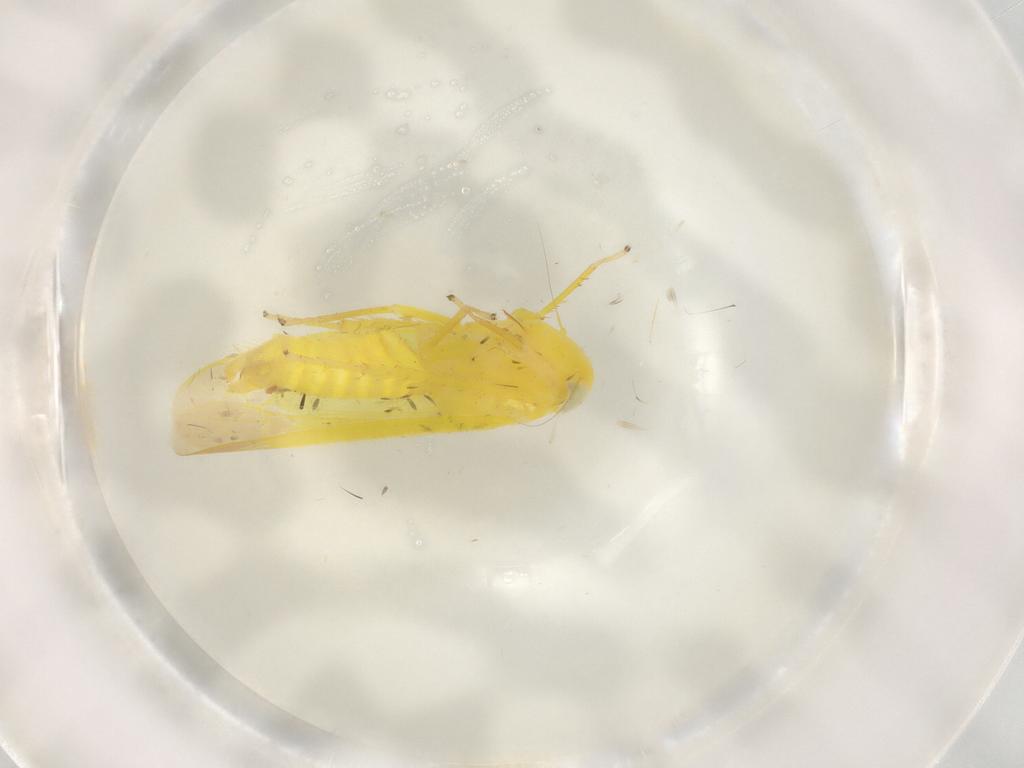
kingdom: Animalia
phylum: Arthropoda
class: Insecta
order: Hemiptera
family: Cicadellidae
